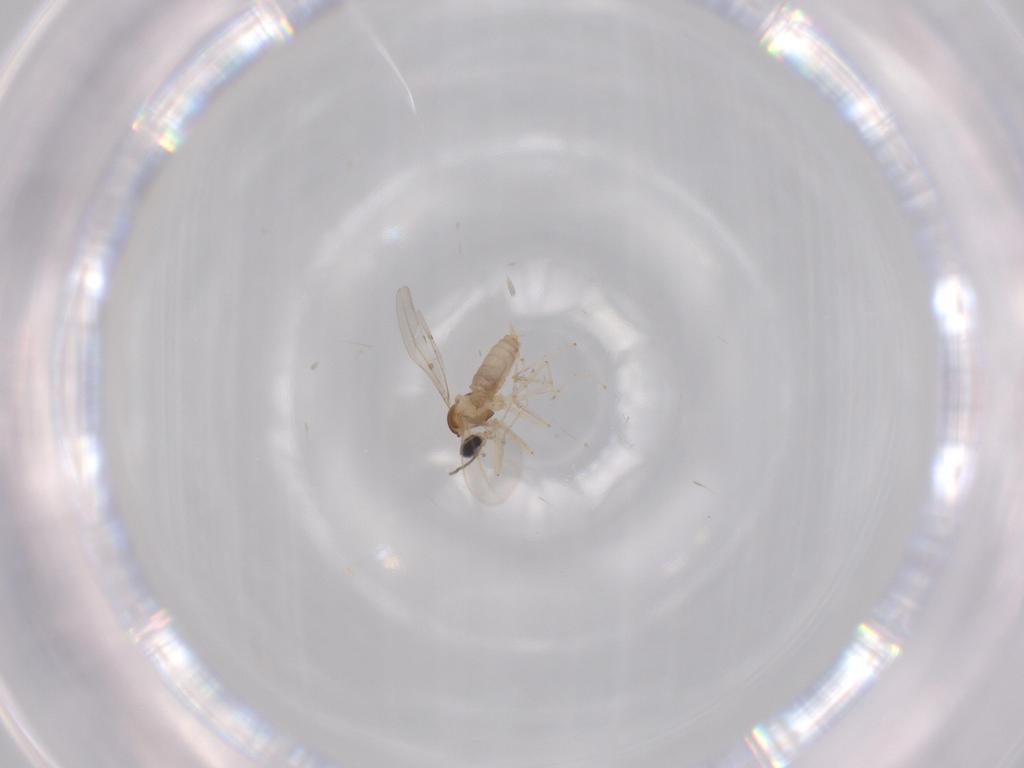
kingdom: Animalia
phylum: Arthropoda
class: Insecta
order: Diptera
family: Cecidomyiidae
